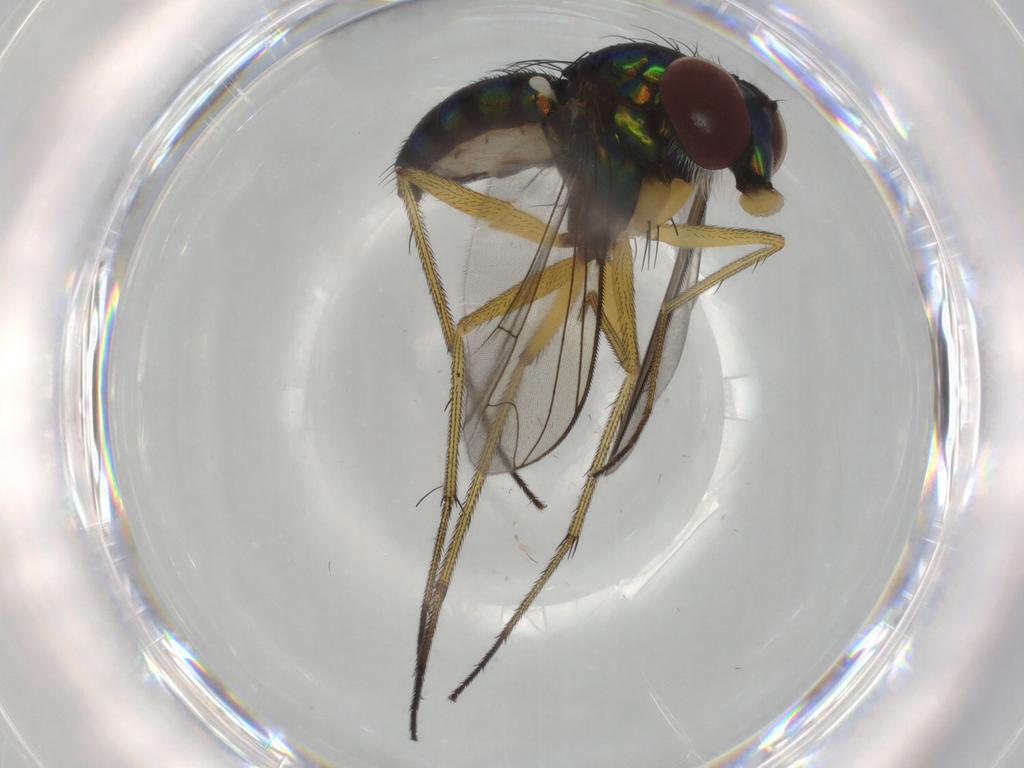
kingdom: Animalia
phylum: Arthropoda
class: Insecta
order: Diptera
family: Dolichopodidae
